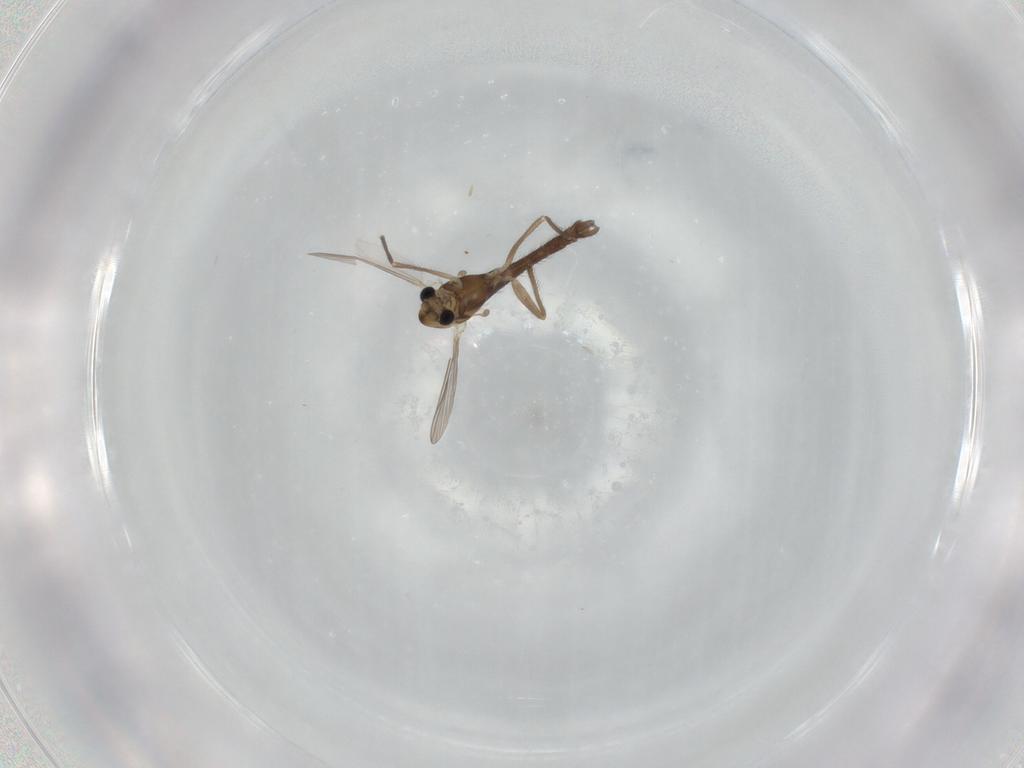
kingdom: Animalia
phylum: Arthropoda
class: Insecta
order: Diptera
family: Chironomidae
